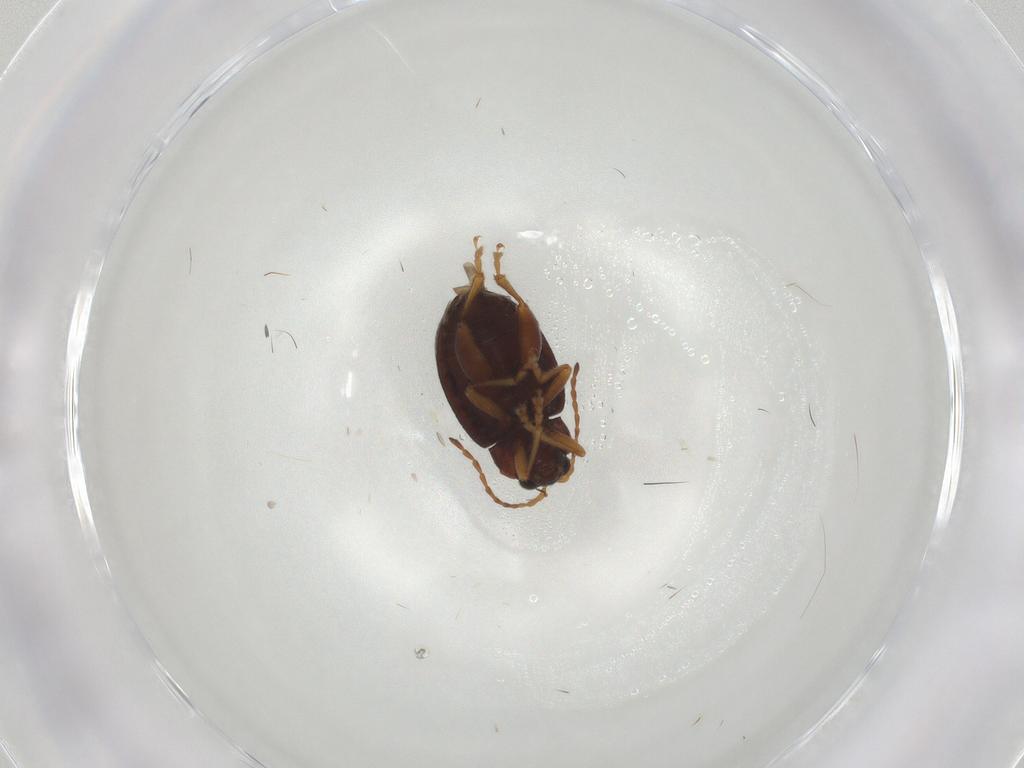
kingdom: Animalia
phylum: Arthropoda
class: Insecta
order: Coleoptera
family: Chrysomelidae
